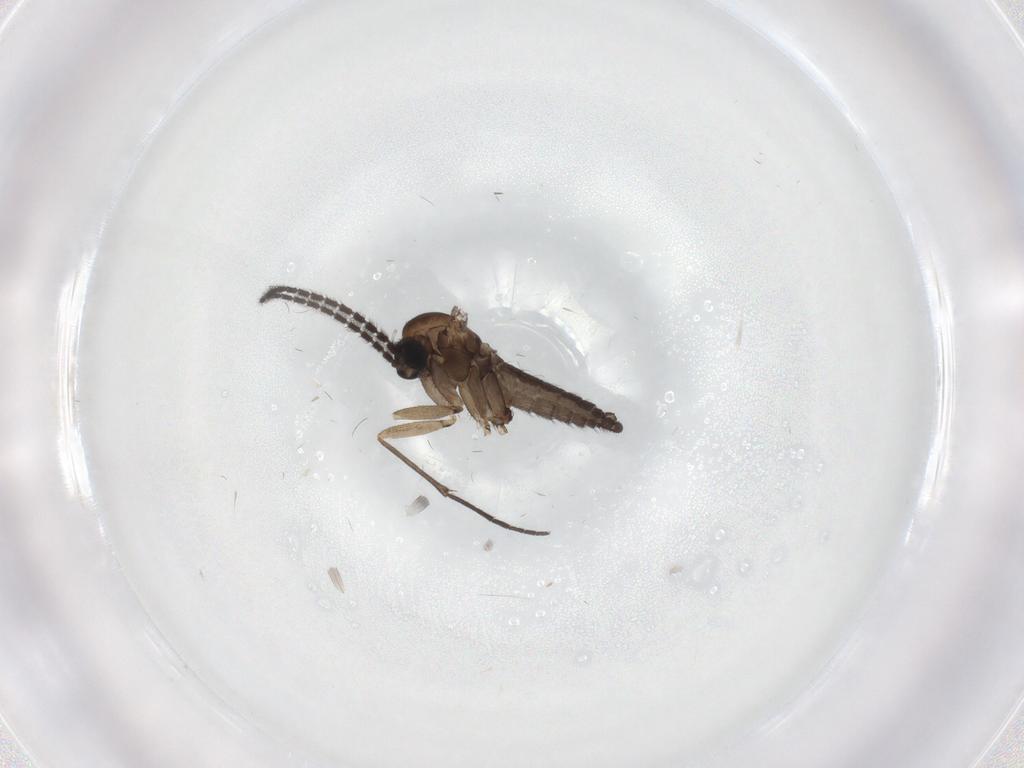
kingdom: Animalia
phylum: Arthropoda
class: Insecta
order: Diptera
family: Sciaridae
